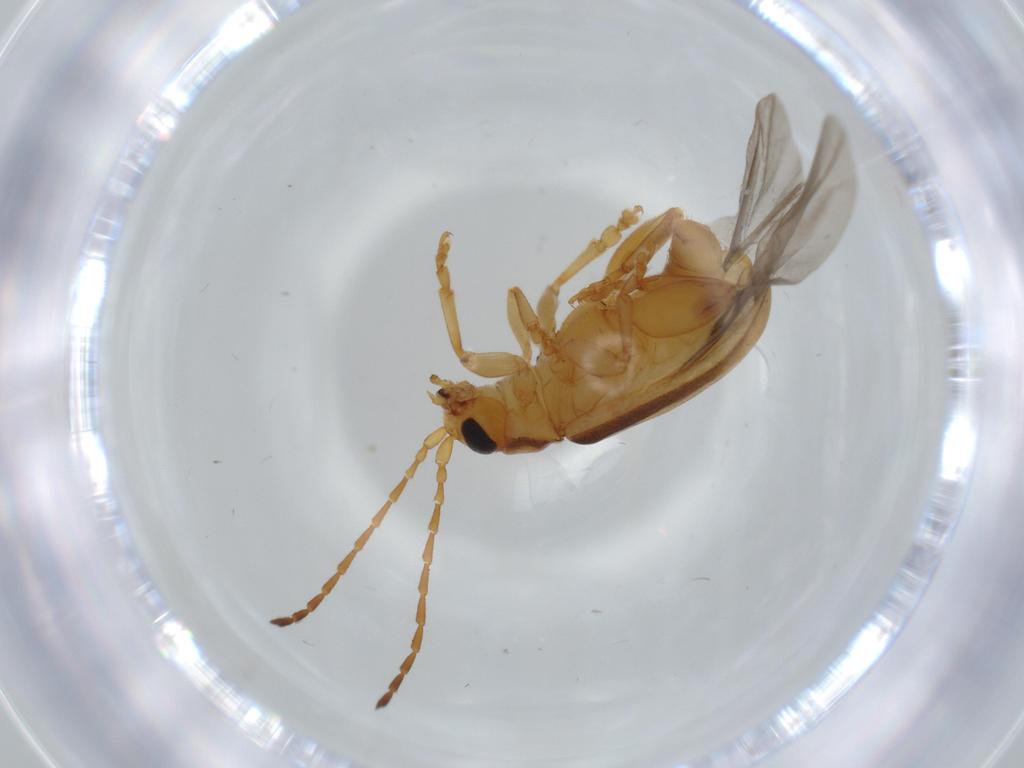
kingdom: Animalia
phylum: Arthropoda
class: Insecta
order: Coleoptera
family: Chrysomelidae
